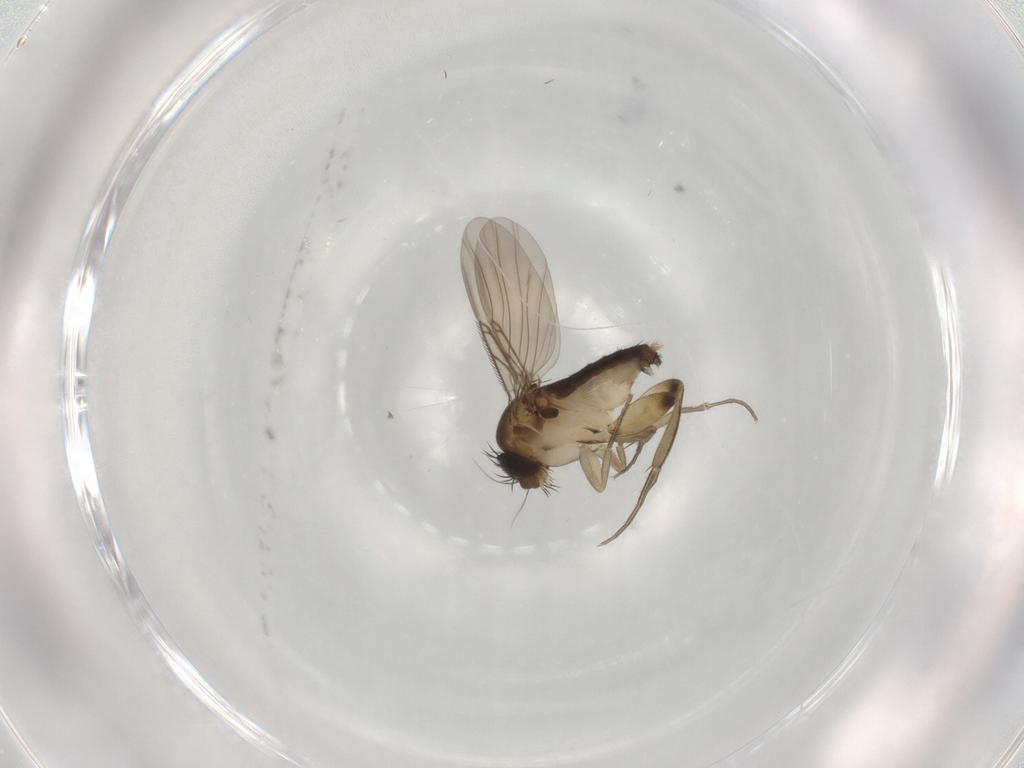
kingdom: Animalia
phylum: Arthropoda
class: Insecta
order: Diptera
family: Phoridae
